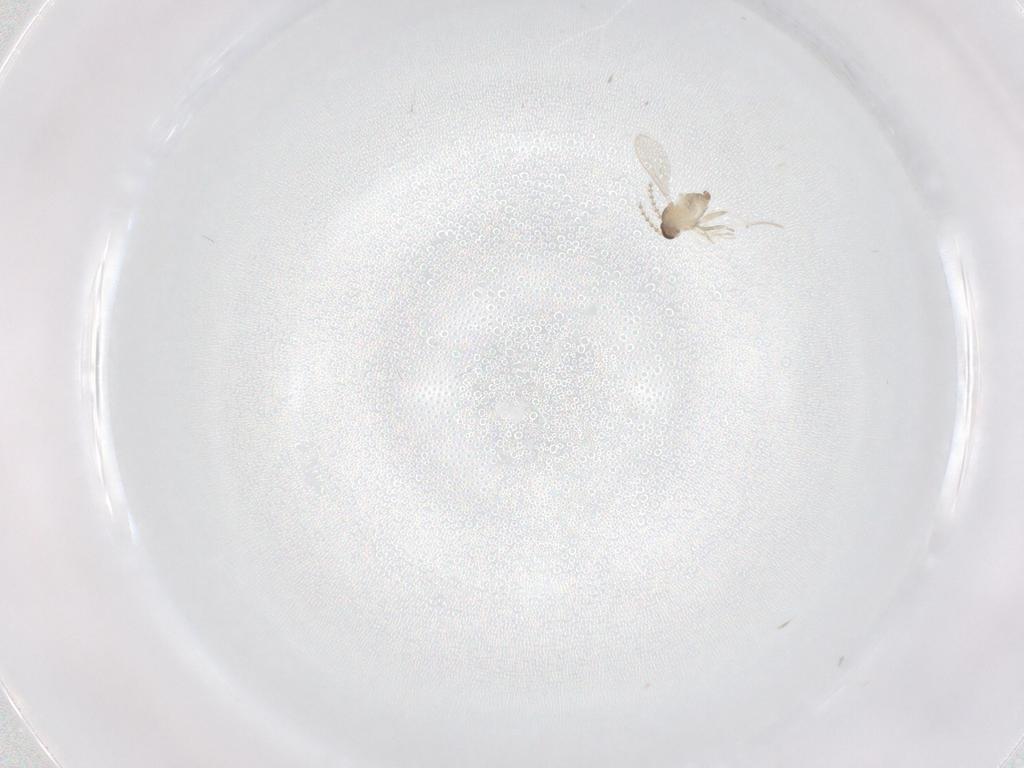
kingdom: Animalia
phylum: Arthropoda
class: Insecta
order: Diptera
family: Cecidomyiidae
